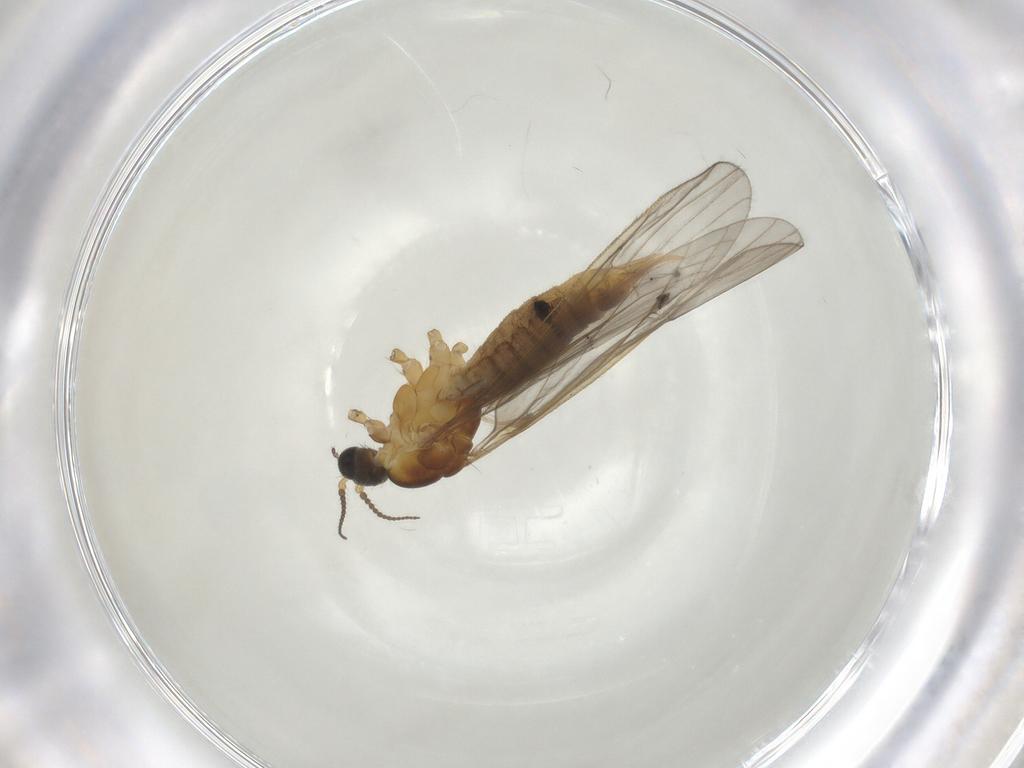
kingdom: Animalia
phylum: Arthropoda
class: Insecta
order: Diptera
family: Limoniidae
